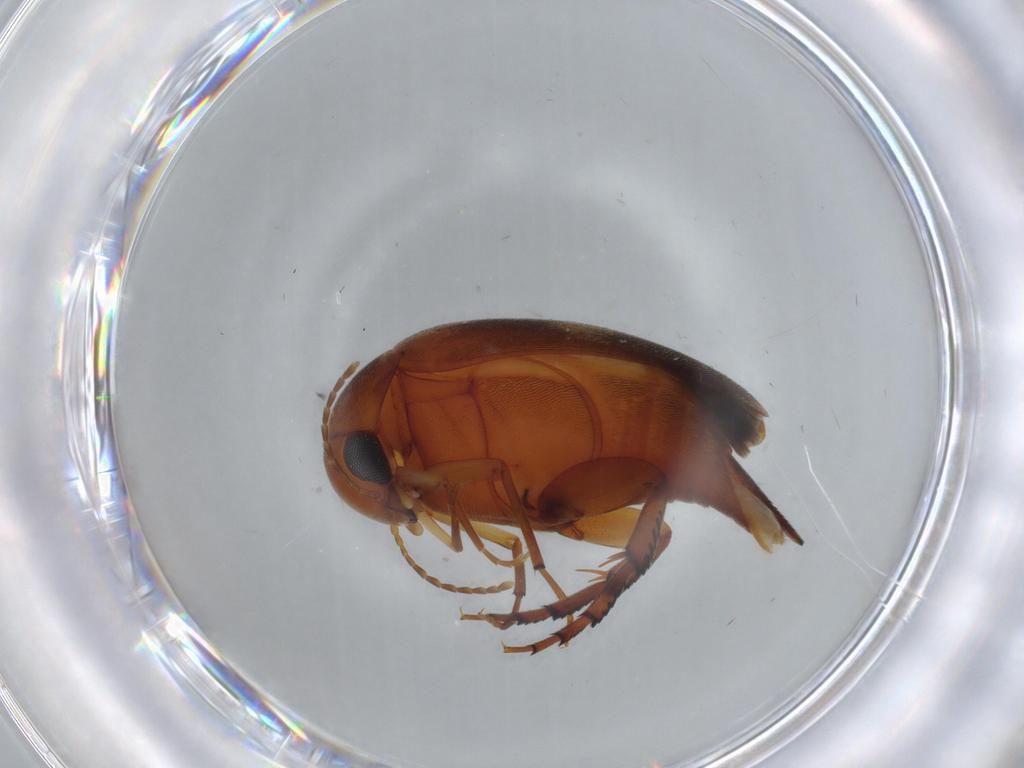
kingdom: Animalia
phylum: Arthropoda
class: Insecta
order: Coleoptera
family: Mordellidae
